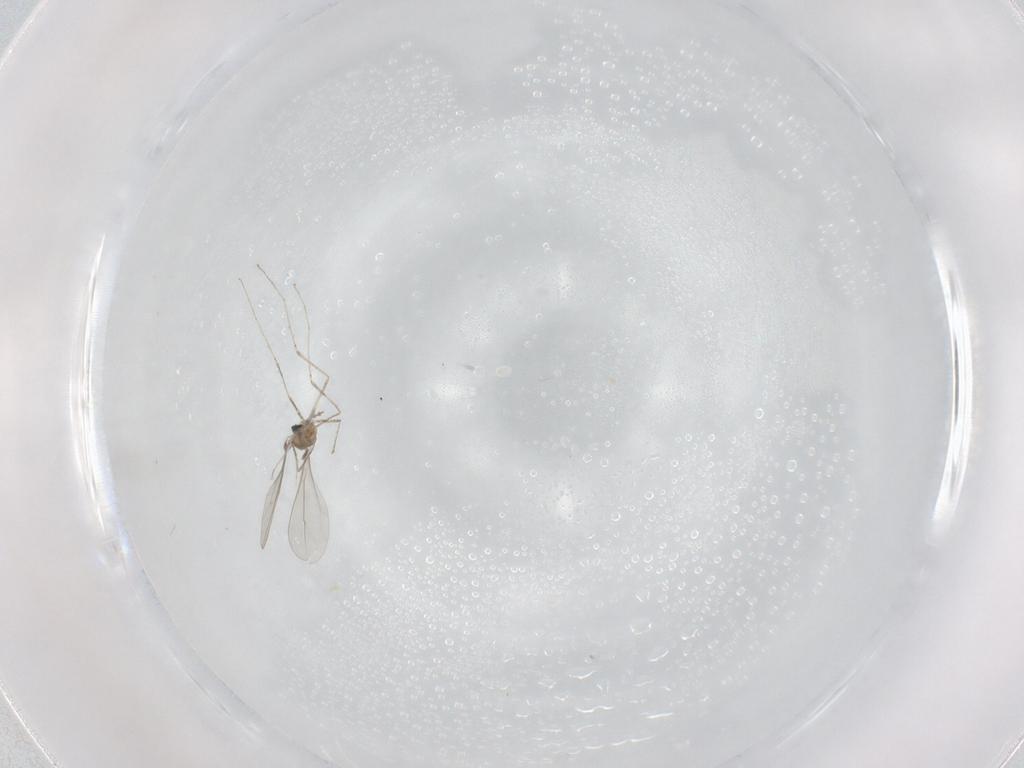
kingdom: Animalia
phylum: Arthropoda
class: Insecta
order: Diptera
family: Cecidomyiidae
